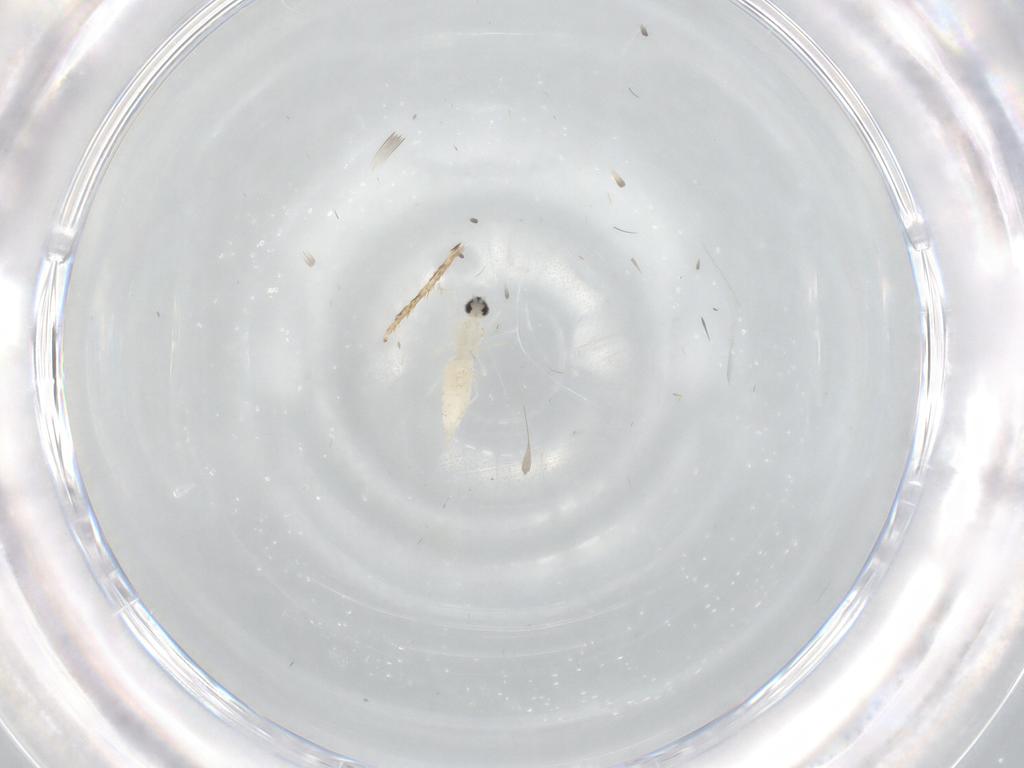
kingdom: Animalia
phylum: Arthropoda
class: Insecta
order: Diptera
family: Cecidomyiidae
